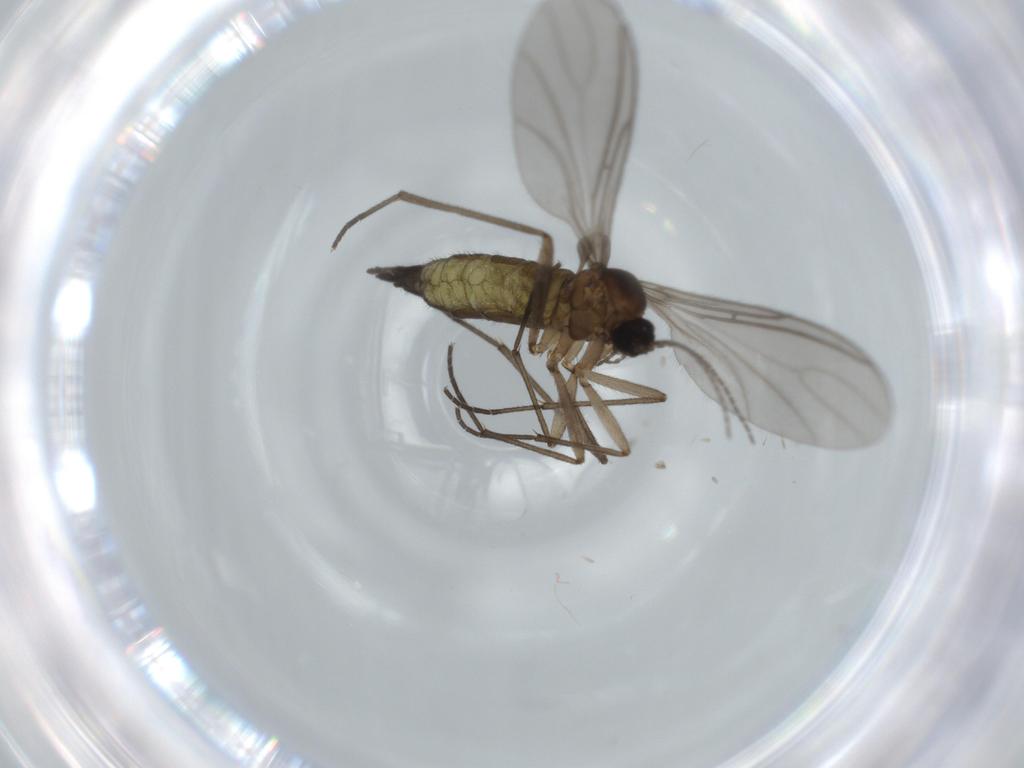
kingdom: Animalia
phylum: Arthropoda
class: Insecta
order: Diptera
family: Sciaridae
